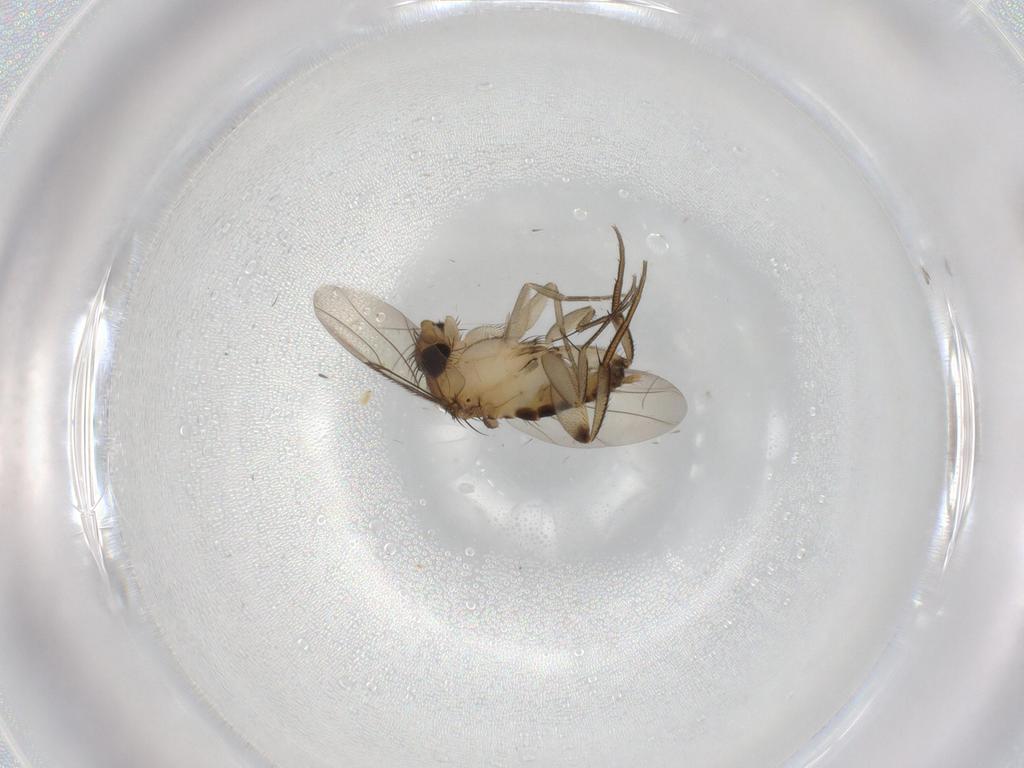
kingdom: Animalia
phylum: Arthropoda
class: Insecta
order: Diptera
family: Phoridae
